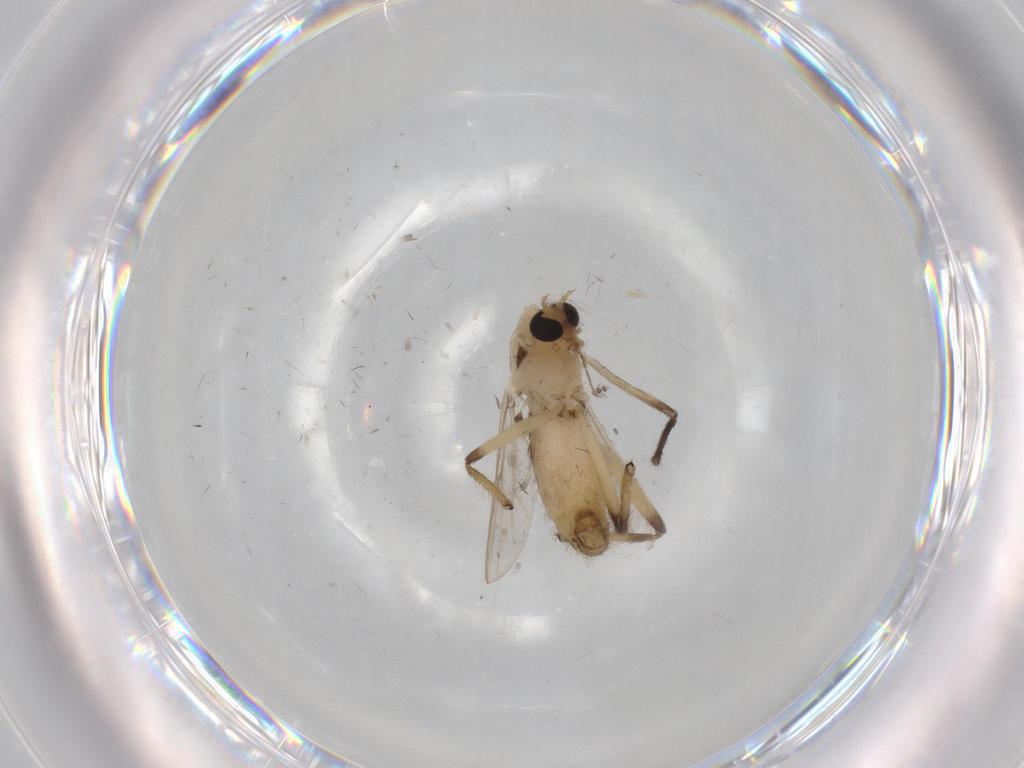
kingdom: Animalia
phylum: Arthropoda
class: Insecta
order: Diptera
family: Chironomidae
